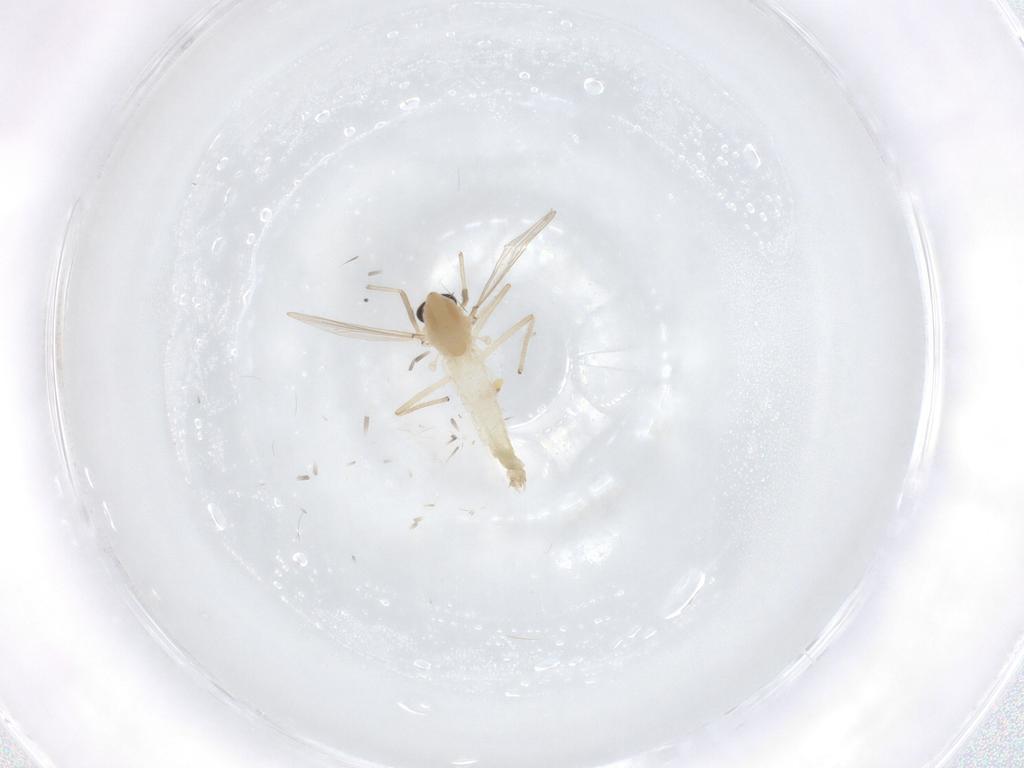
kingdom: Animalia
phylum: Arthropoda
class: Insecta
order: Diptera
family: Chironomidae
